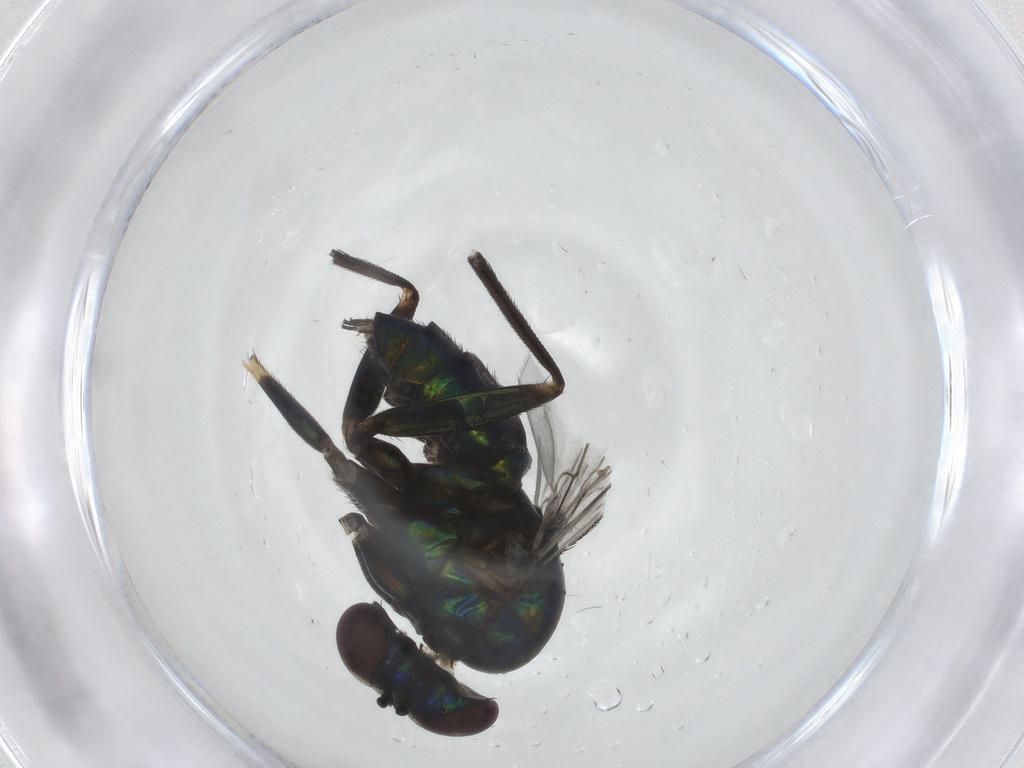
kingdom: Animalia
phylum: Arthropoda
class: Insecta
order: Diptera
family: Dolichopodidae
